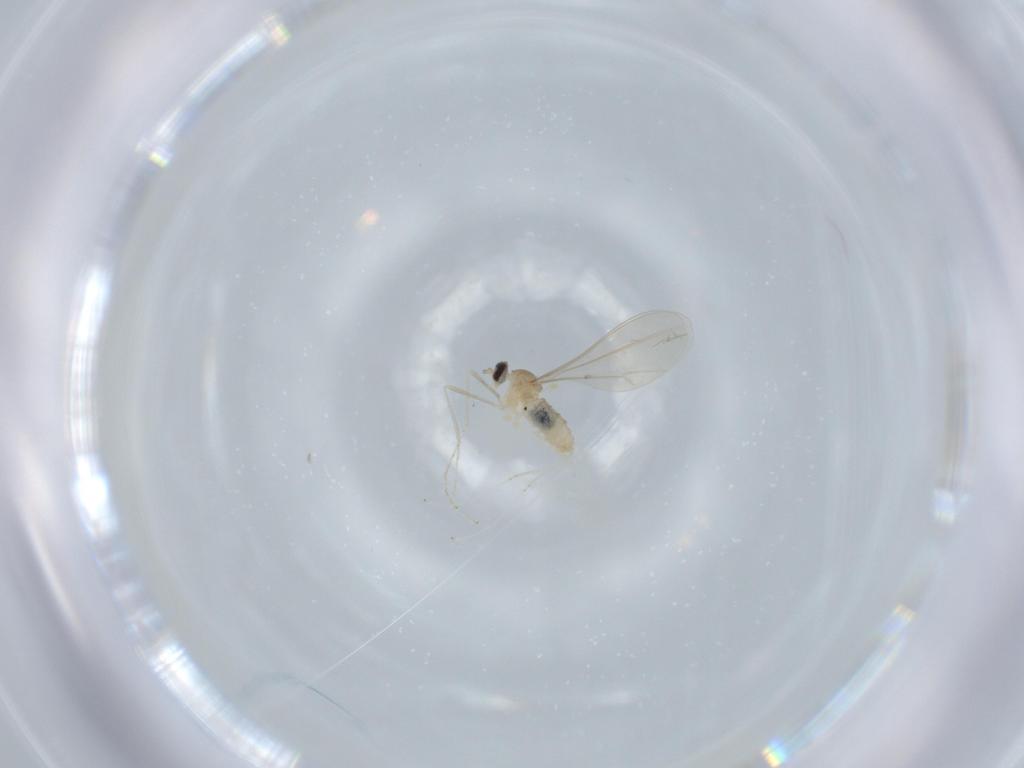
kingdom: Animalia
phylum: Arthropoda
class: Insecta
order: Diptera
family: Cecidomyiidae
